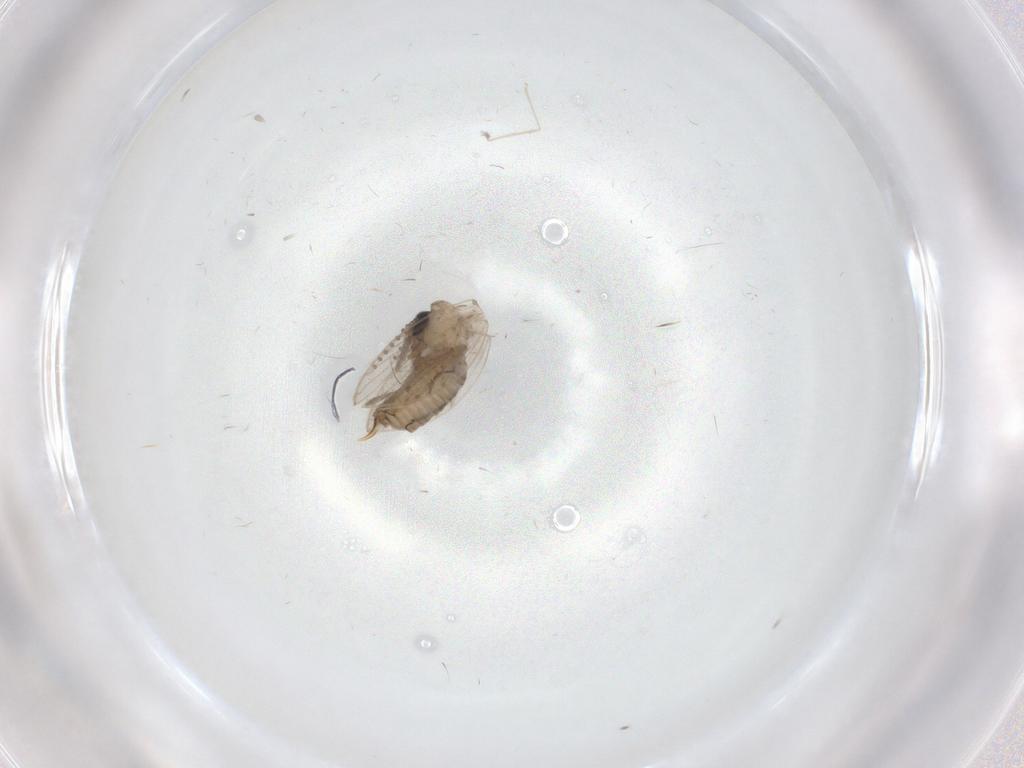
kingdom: Animalia
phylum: Arthropoda
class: Insecta
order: Diptera
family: Psychodidae
